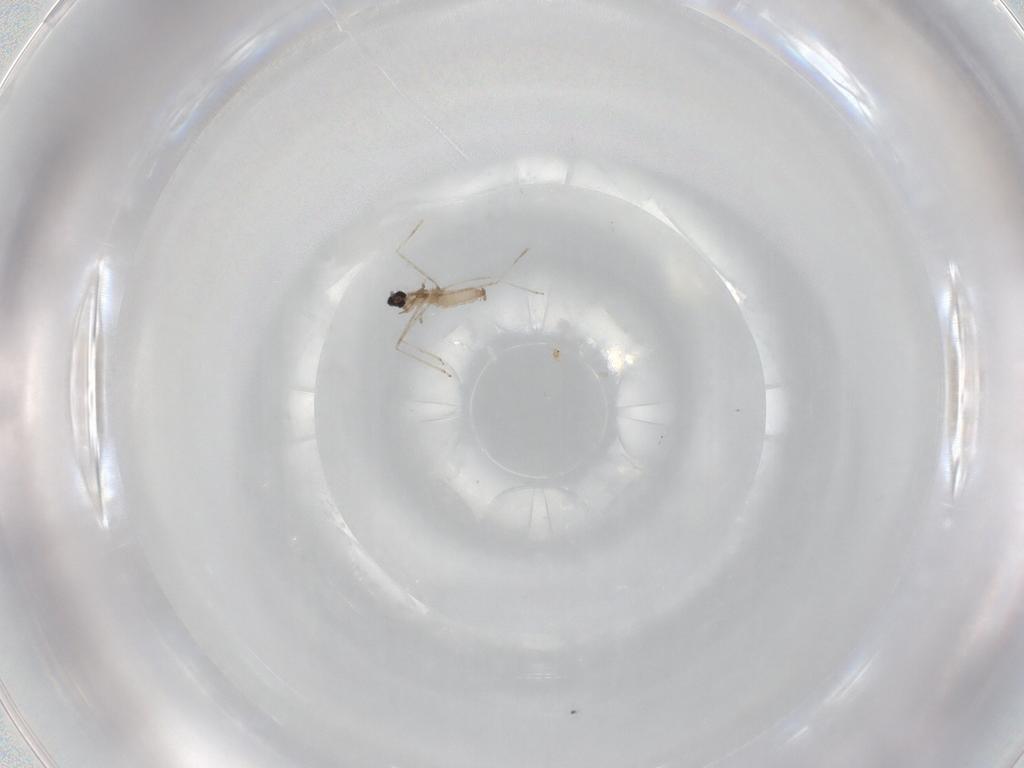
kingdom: Animalia
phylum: Arthropoda
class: Insecta
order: Diptera
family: Cecidomyiidae
